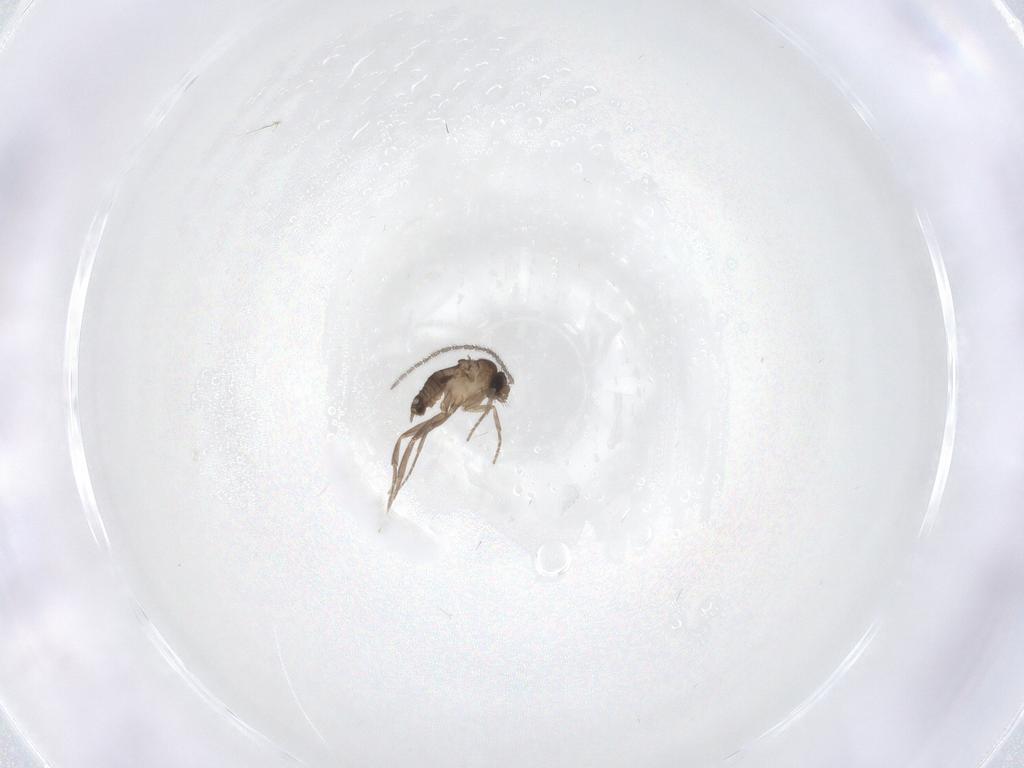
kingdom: Animalia
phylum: Arthropoda
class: Insecta
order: Diptera
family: Sciaridae
